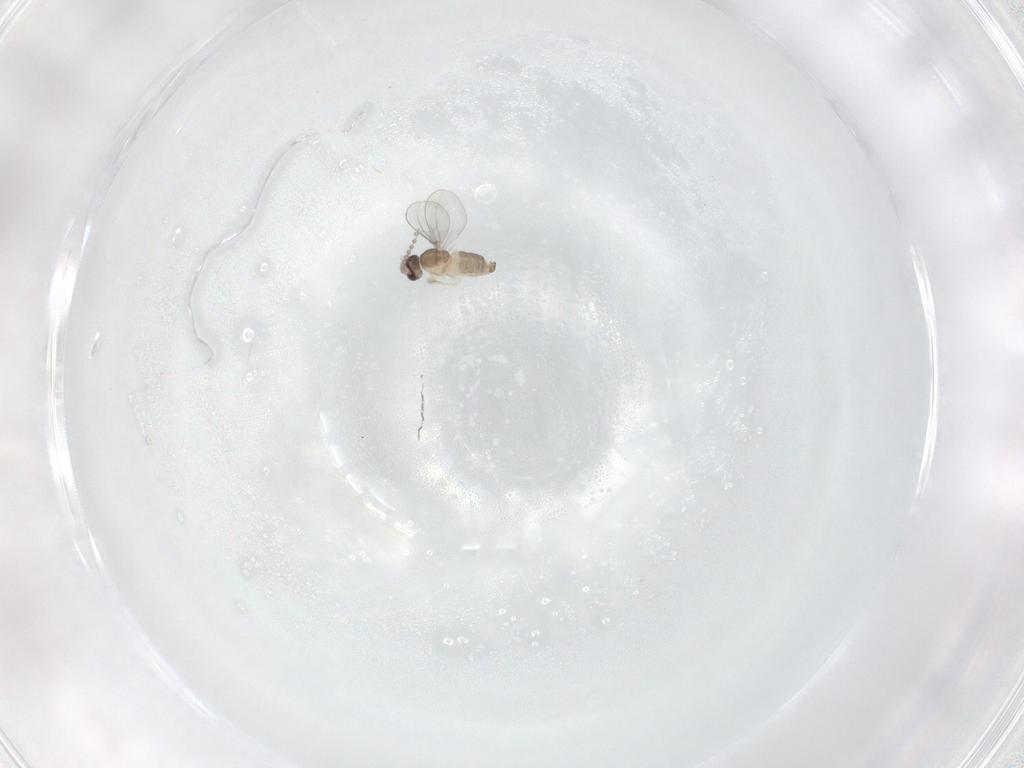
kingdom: Animalia
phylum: Arthropoda
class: Insecta
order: Diptera
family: Cecidomyiidae
